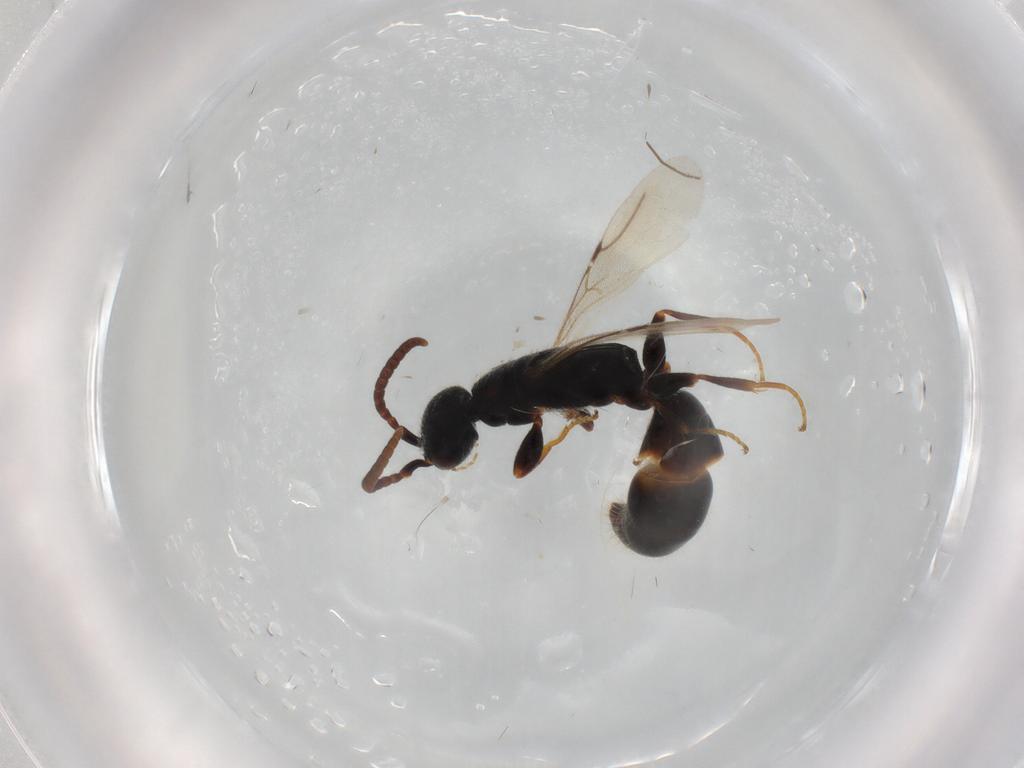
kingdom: Animalia
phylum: Arthropoda
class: Insecta
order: Hymenoptera
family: Bethylidae
